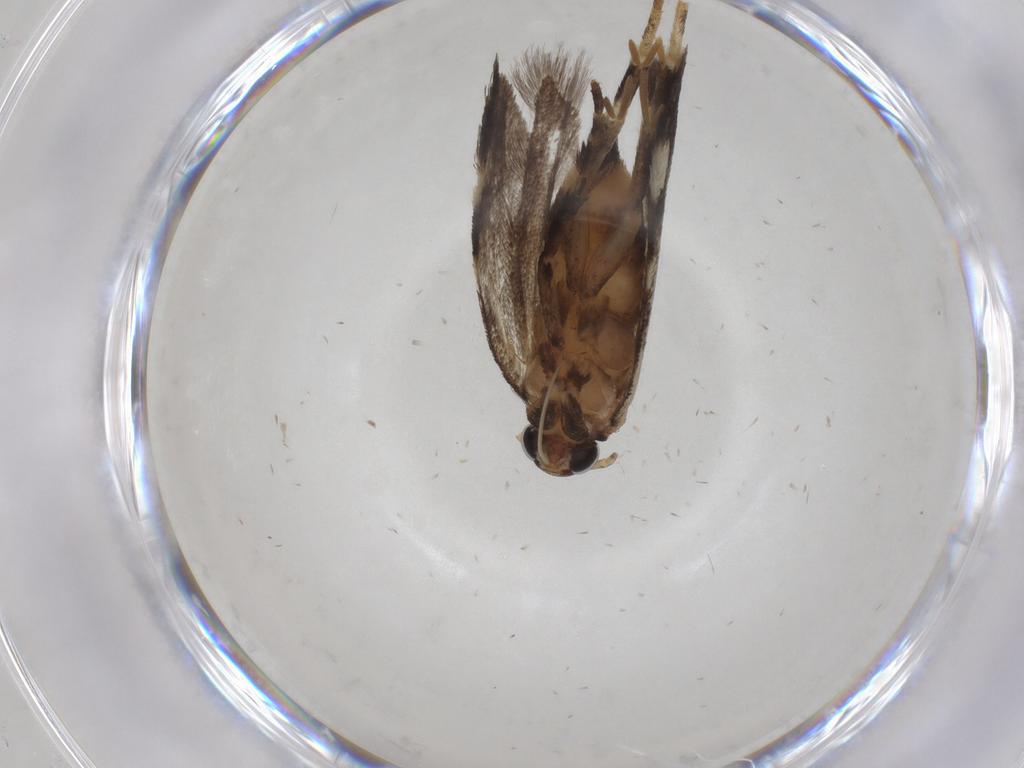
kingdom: Animalia
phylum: Arthropoda
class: Insecta
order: Lepidoptera
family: Gelechiidae
